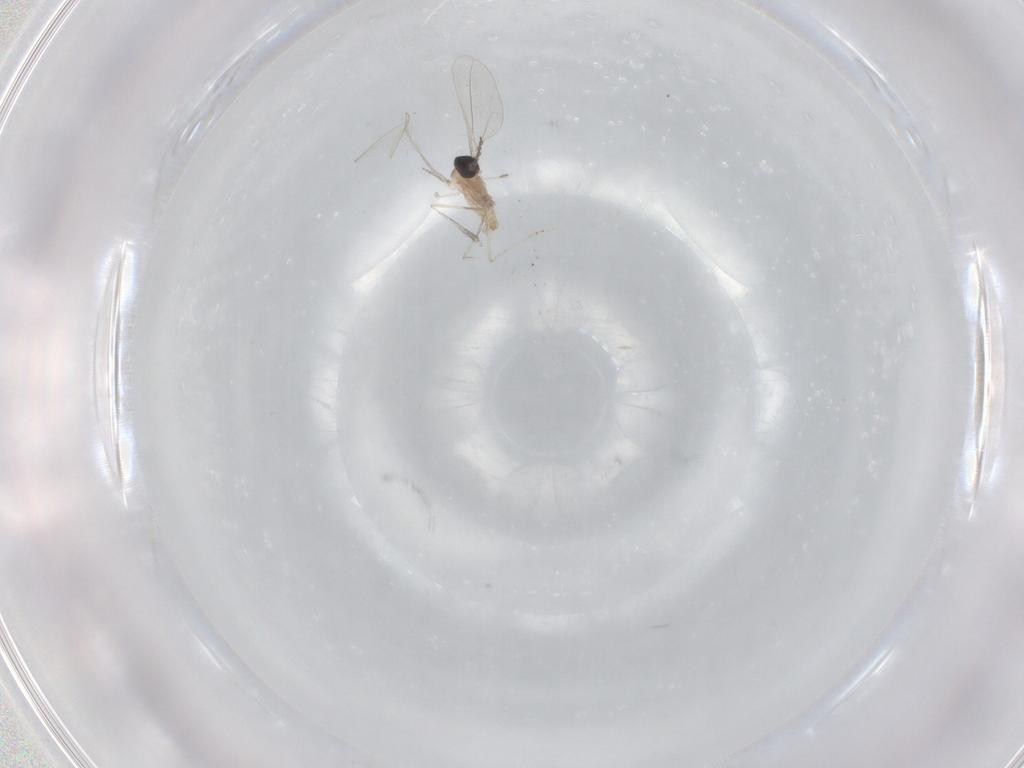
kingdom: Animalia
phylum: Arthropoda
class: Insecta
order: Diptera
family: Cecidomyiidae
